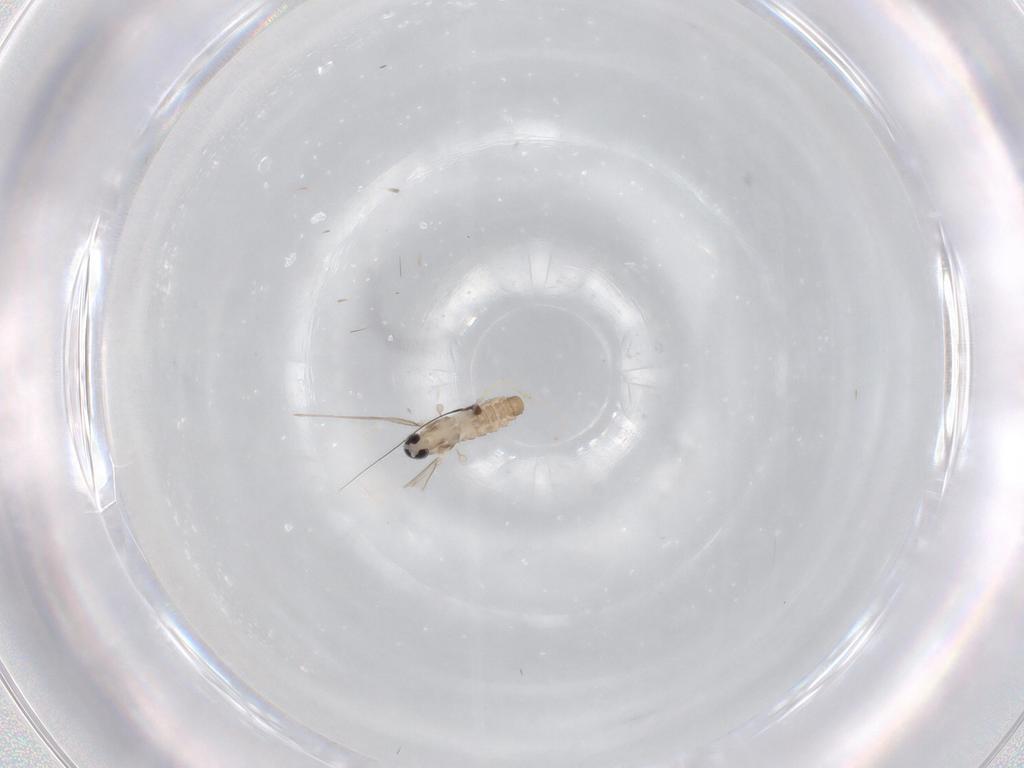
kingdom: Animalia
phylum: Arthropoda
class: Insecta
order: Diptera
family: Cecidomyiidae
